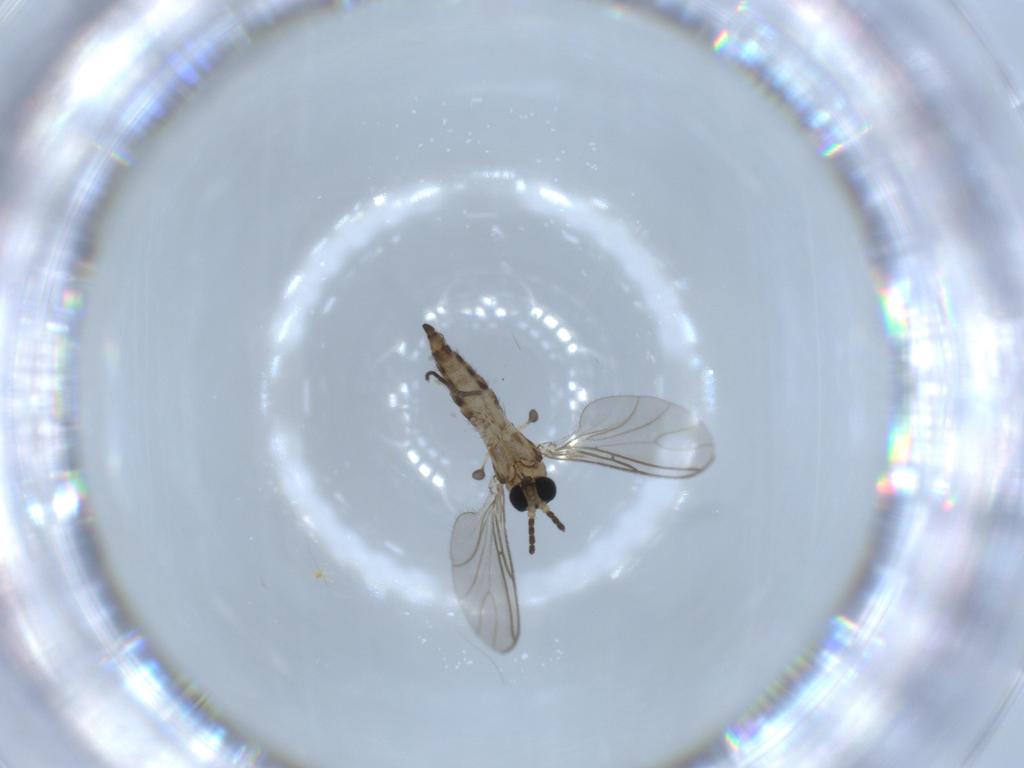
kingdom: Animalia
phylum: Arthropoda
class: Insecta
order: Diptera
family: Sciaridae
